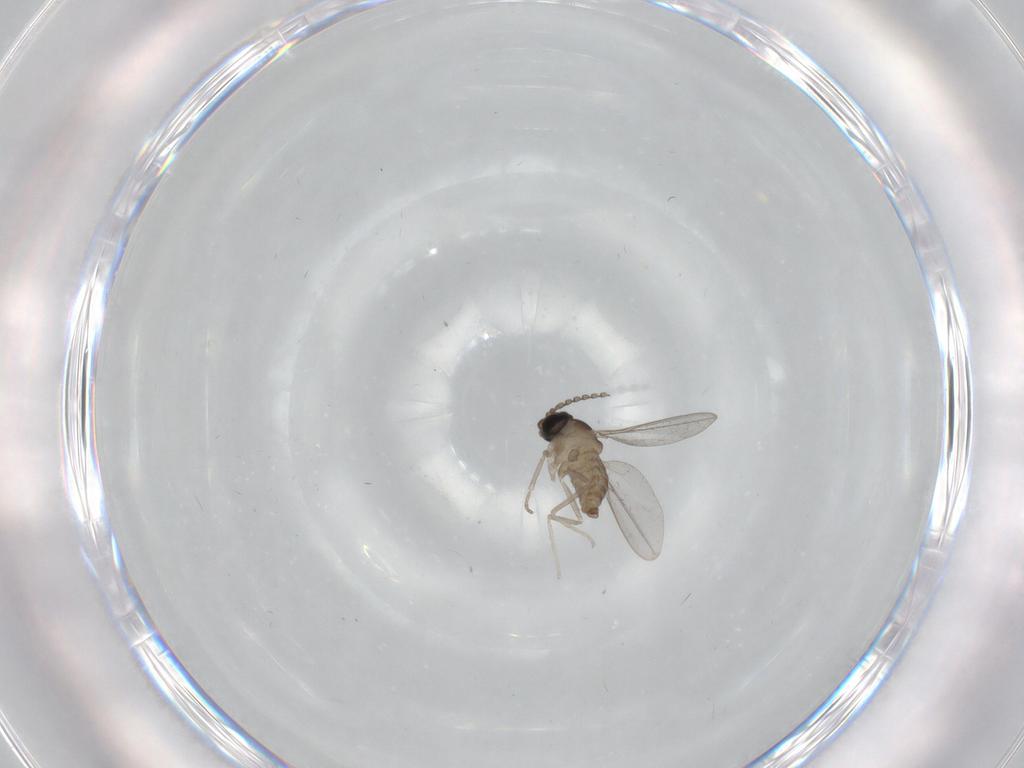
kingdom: Animalia
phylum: Arthropoda
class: Insecta
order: Diptera
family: Cecidomyiidae
